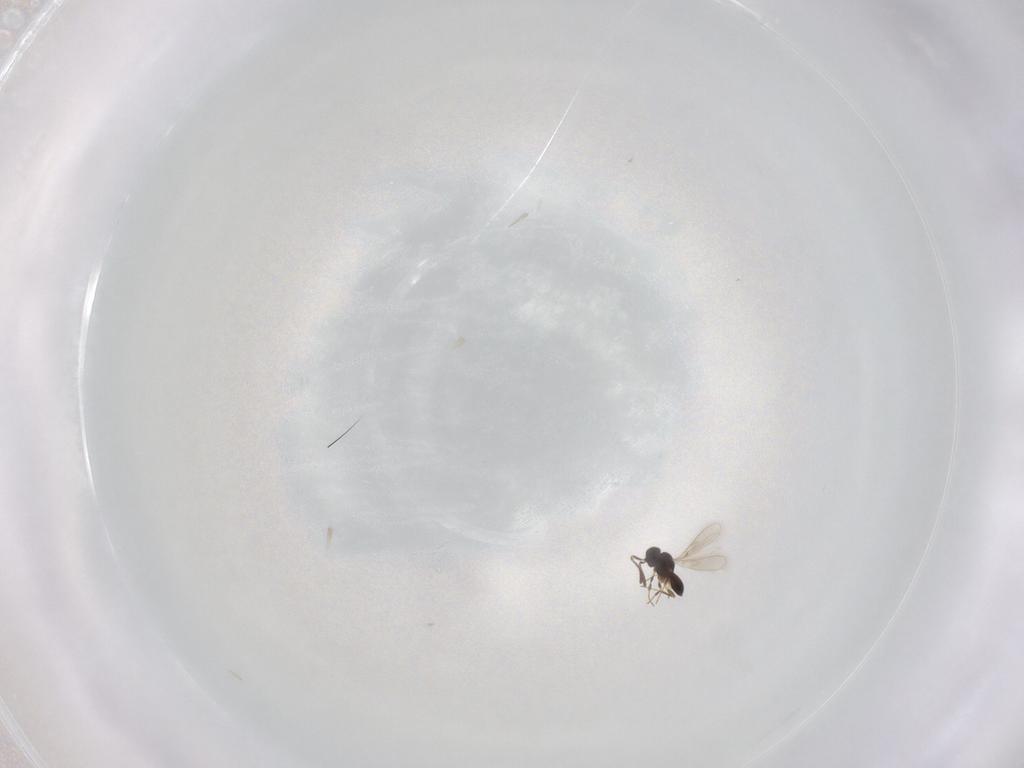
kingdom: Animalia
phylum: Arthropoda
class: Insecta
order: Hymenoptera
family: Scelionidae
